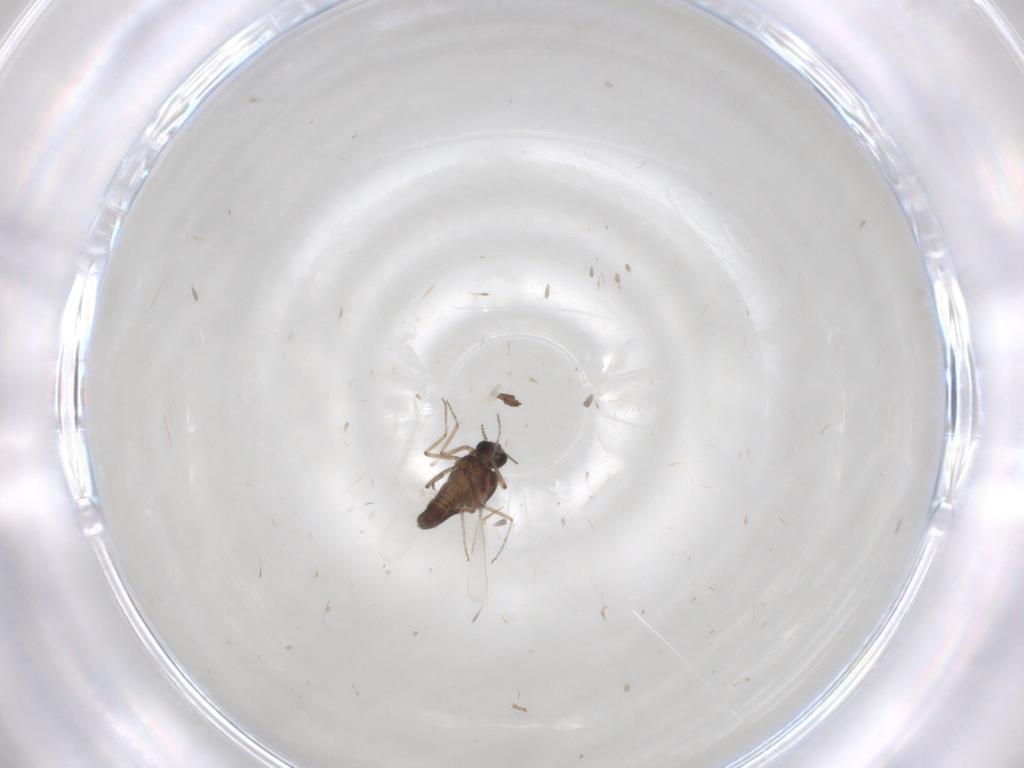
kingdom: Animalia
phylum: Arthropoda
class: Insecta
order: Diptera
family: Ceratopogonidae
